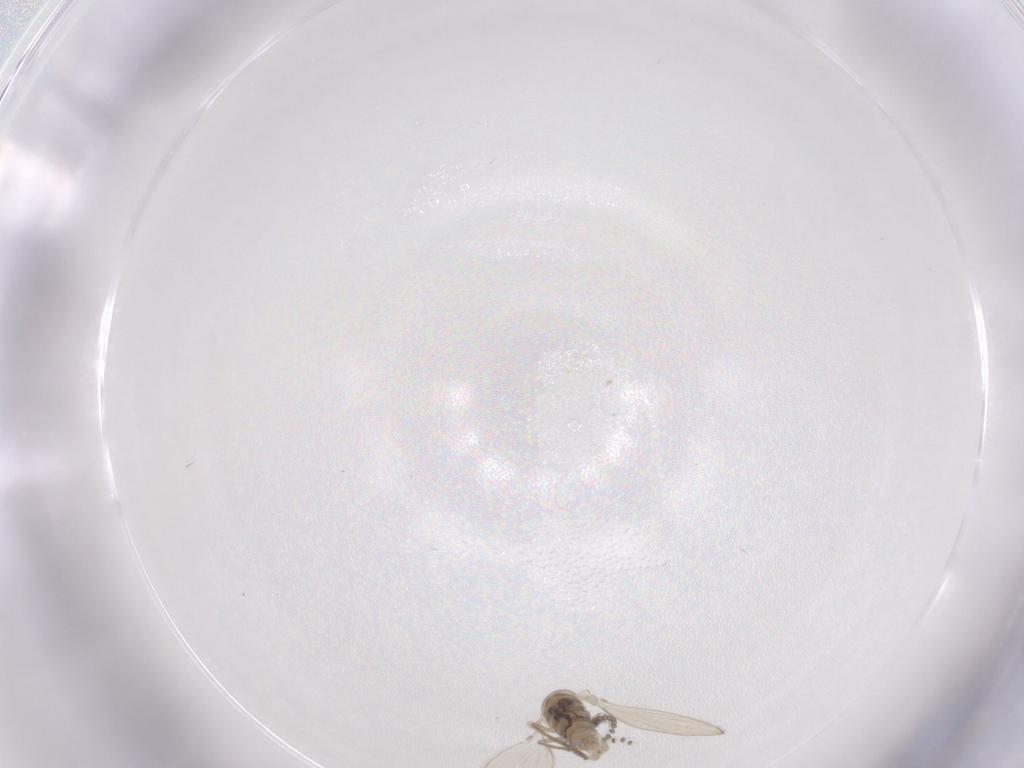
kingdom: Animalia
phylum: Arthropoda
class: Insecta
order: Diptera
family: Psychodidae
